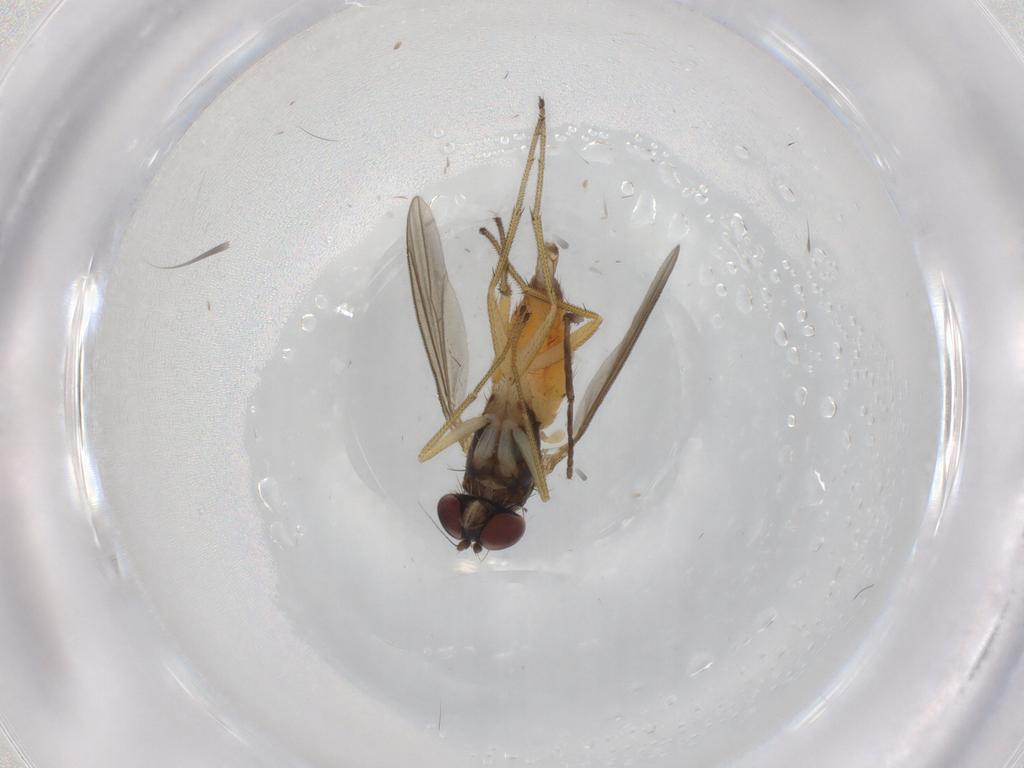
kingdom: Animalia
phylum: Arthropoda
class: Insecta
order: Diptera
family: Dolichopodidae
